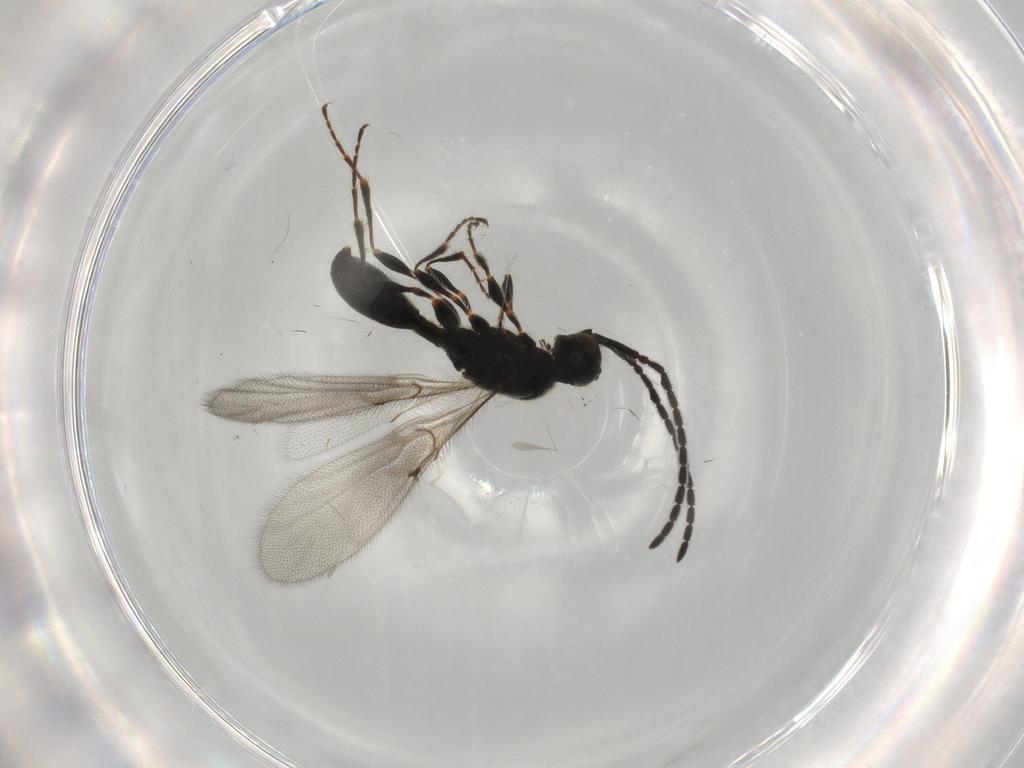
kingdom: Animalia
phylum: Arthropoda
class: Insecta
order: Hymenoptera
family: Diapriidae
